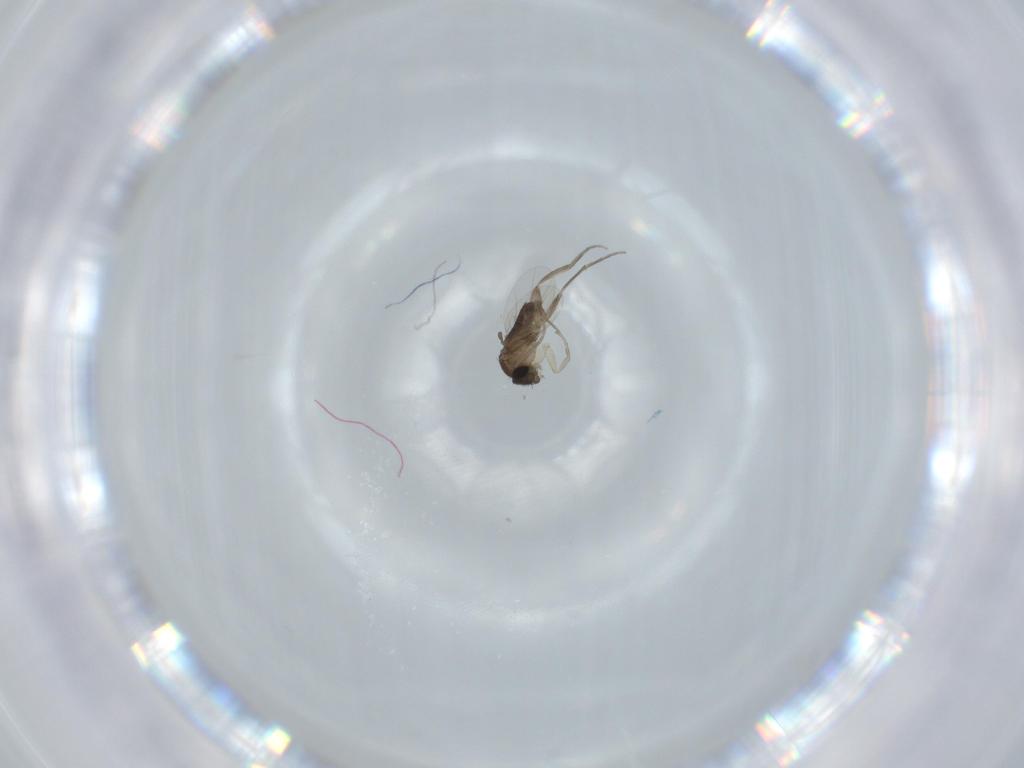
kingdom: Animalia
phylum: Arthropoda
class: Insecta
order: Diptera
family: Phoridae
